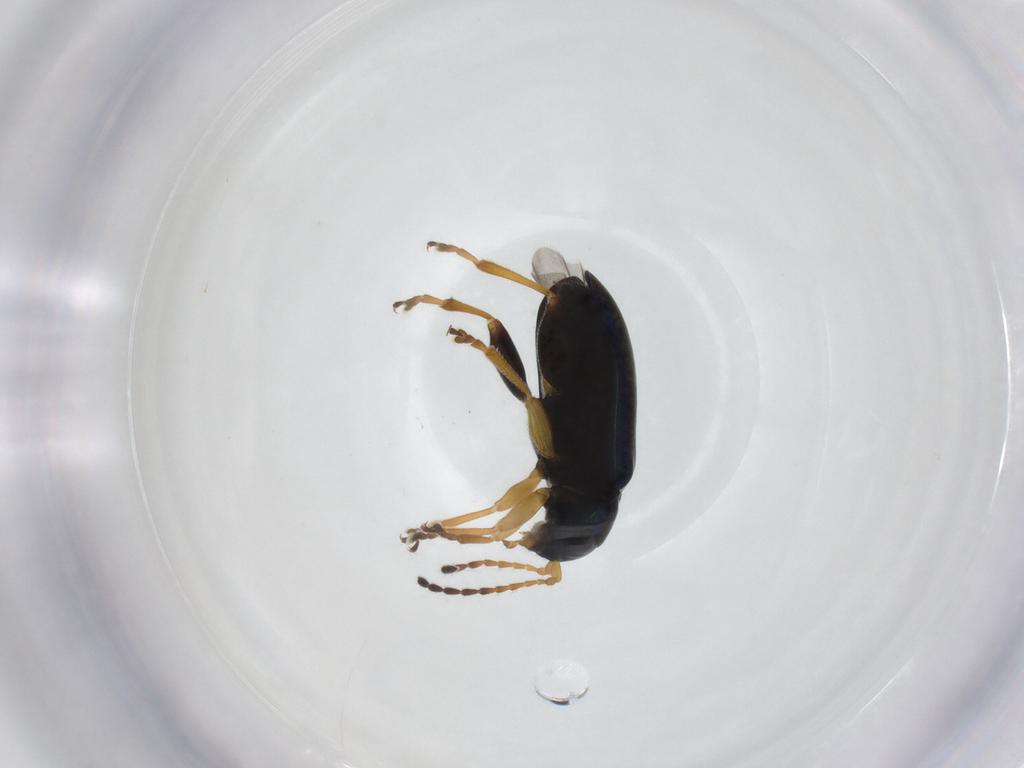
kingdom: Animalia
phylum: Arthropoda
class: Insecta
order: Coleoptera
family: Chrysomelidae
